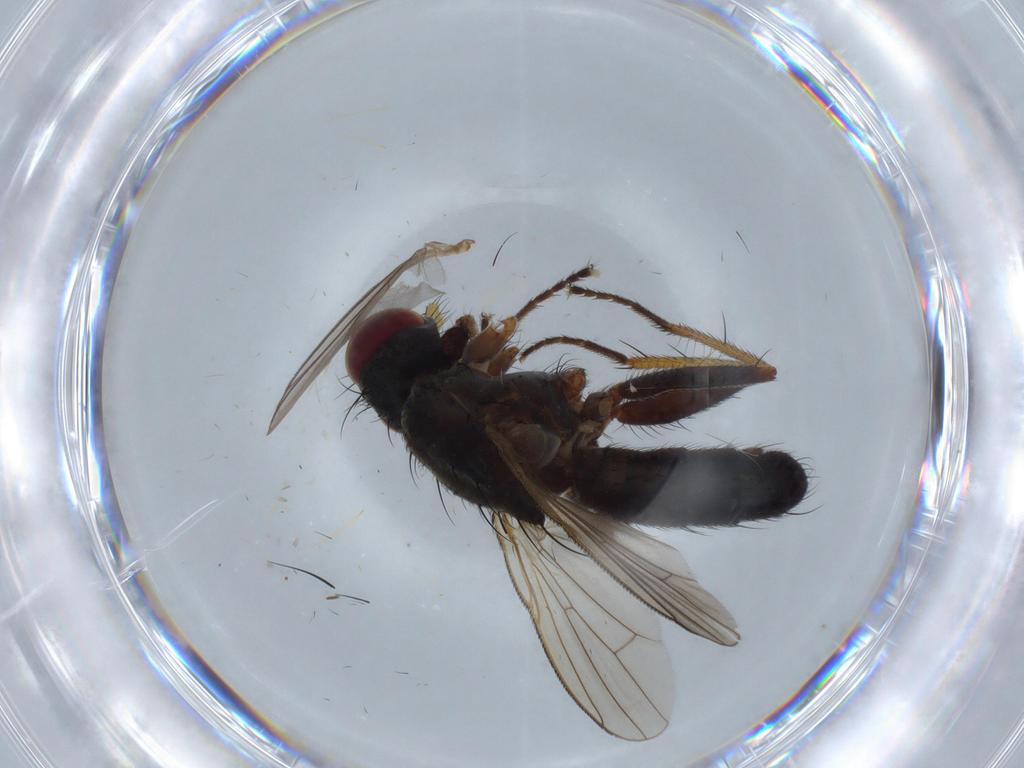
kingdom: Animalia
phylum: Arthropoda
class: Insecta
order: Diptera
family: Muscidae
